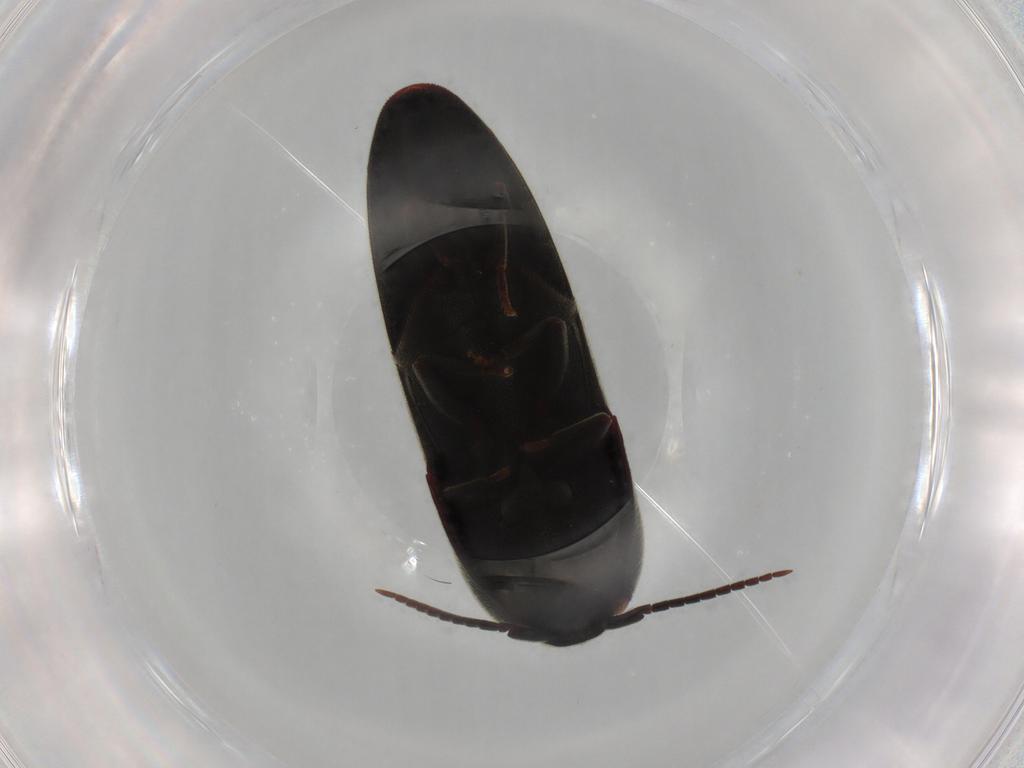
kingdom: Animalia
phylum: Arthropoda
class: Insecta
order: Coleoptera
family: Eucnemidae
